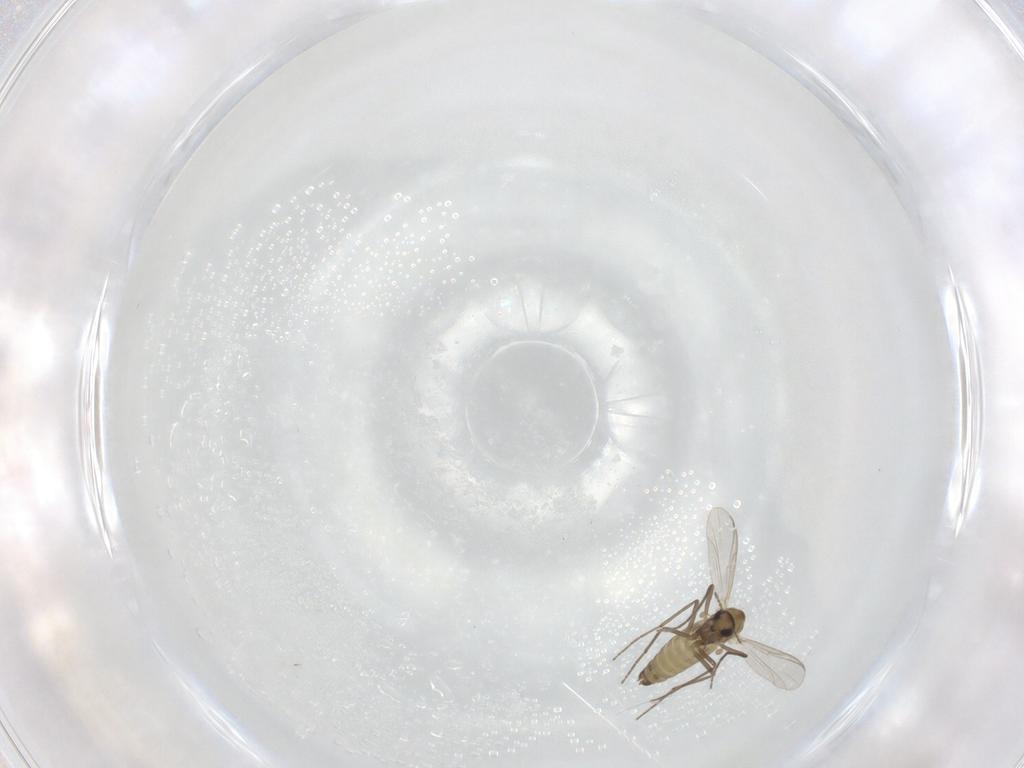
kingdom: Animalia
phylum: Arthropoda
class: Insecta
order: Diptera
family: Chironomidae
